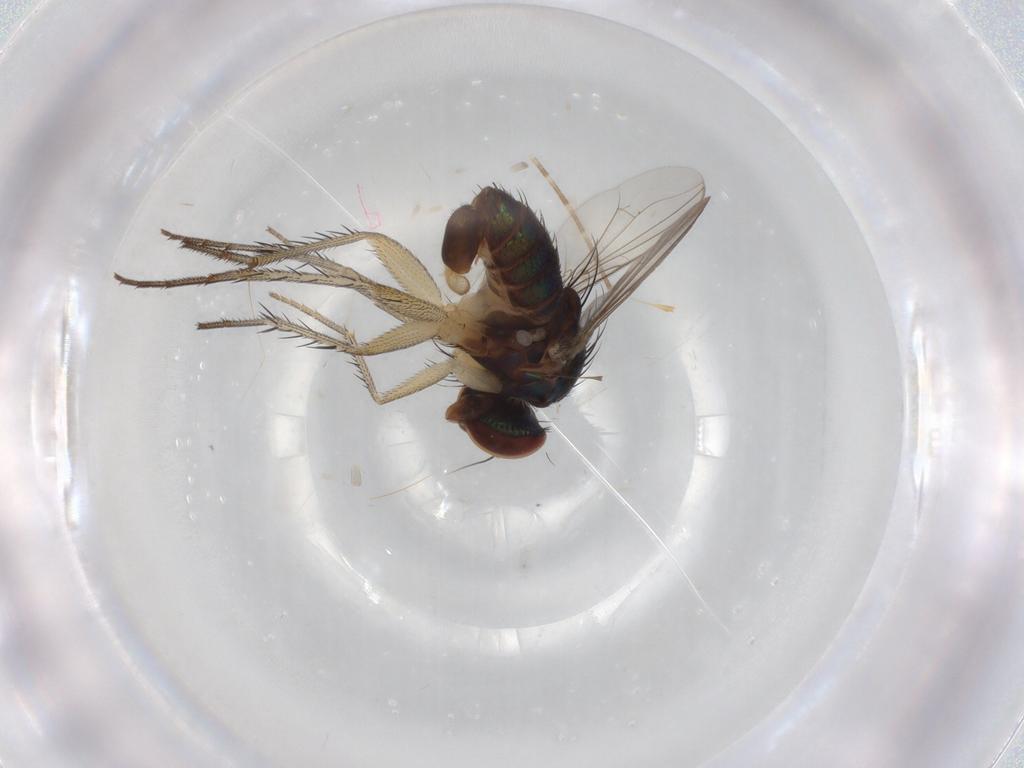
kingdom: Animalia
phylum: Arthropoda
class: Insecta
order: Diptera
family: Dolichopodidae
